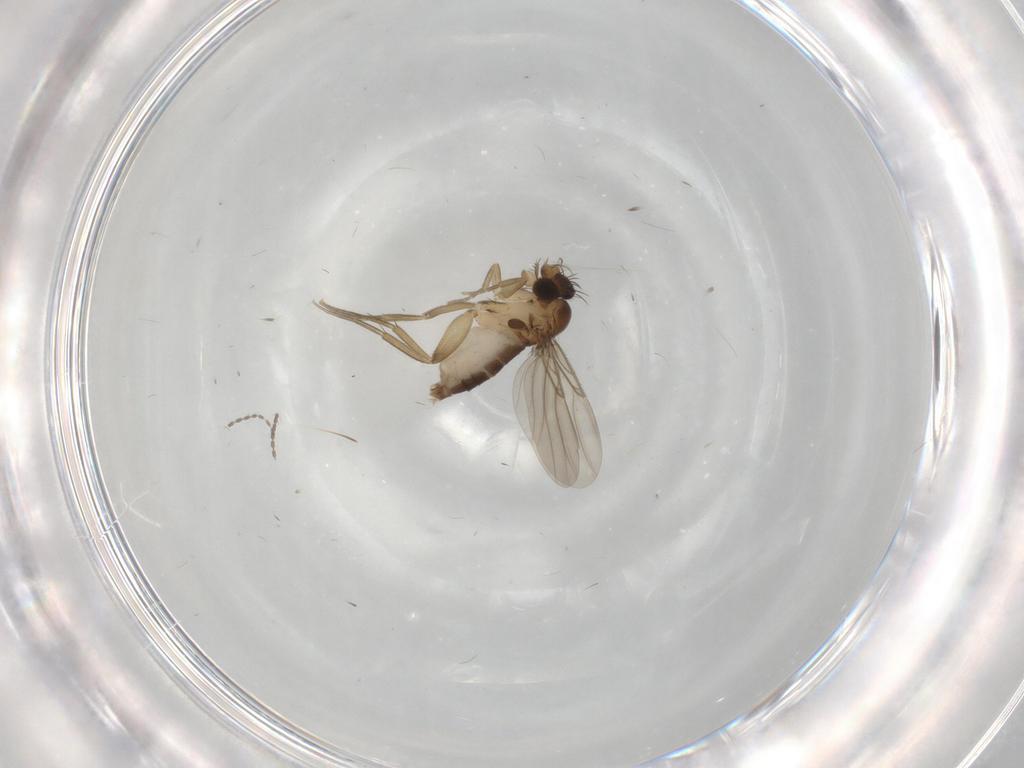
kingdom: Animalia
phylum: Arthropoda
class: Insecta
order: Diptera
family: Phoridae
